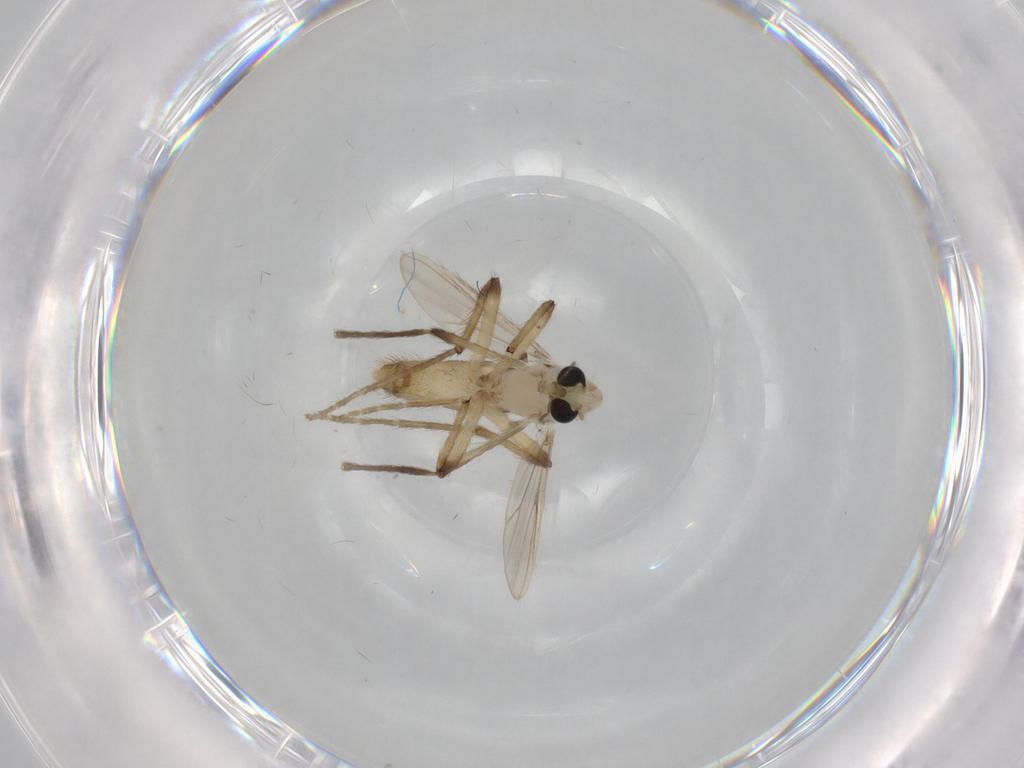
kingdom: Animalia
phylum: Arthropoda
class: Insecta
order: Diptera
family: Chironomidae
